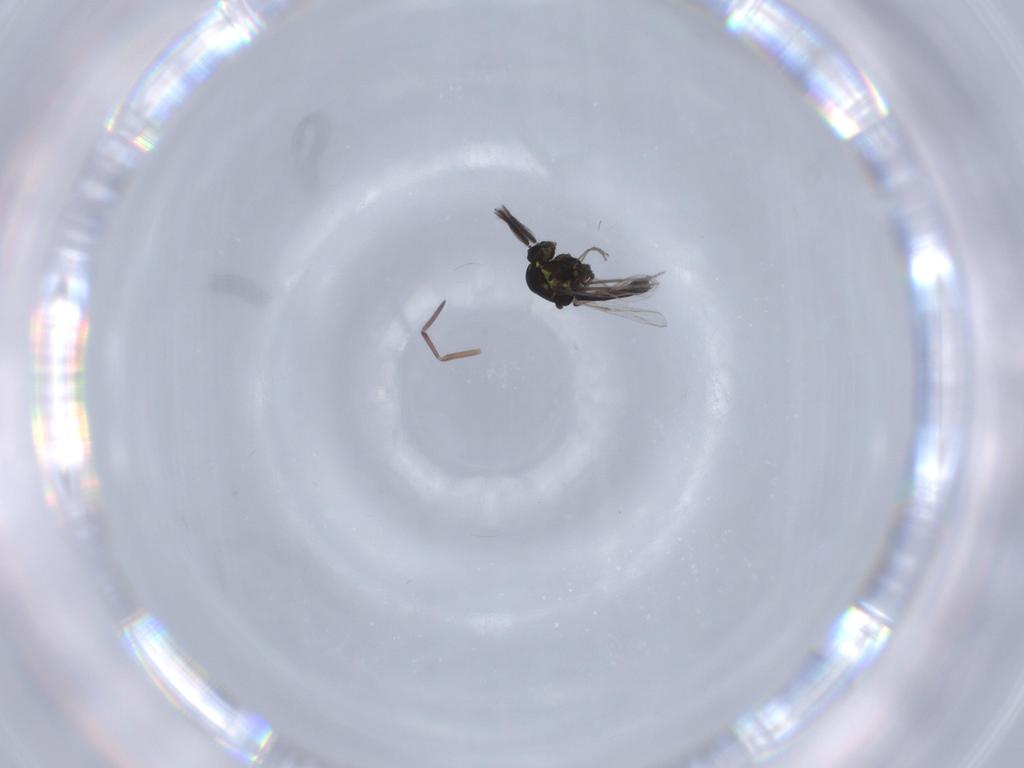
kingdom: Animalia
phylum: Arthropoda
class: Insecta
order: Diptera
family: Ceratopogonidae
